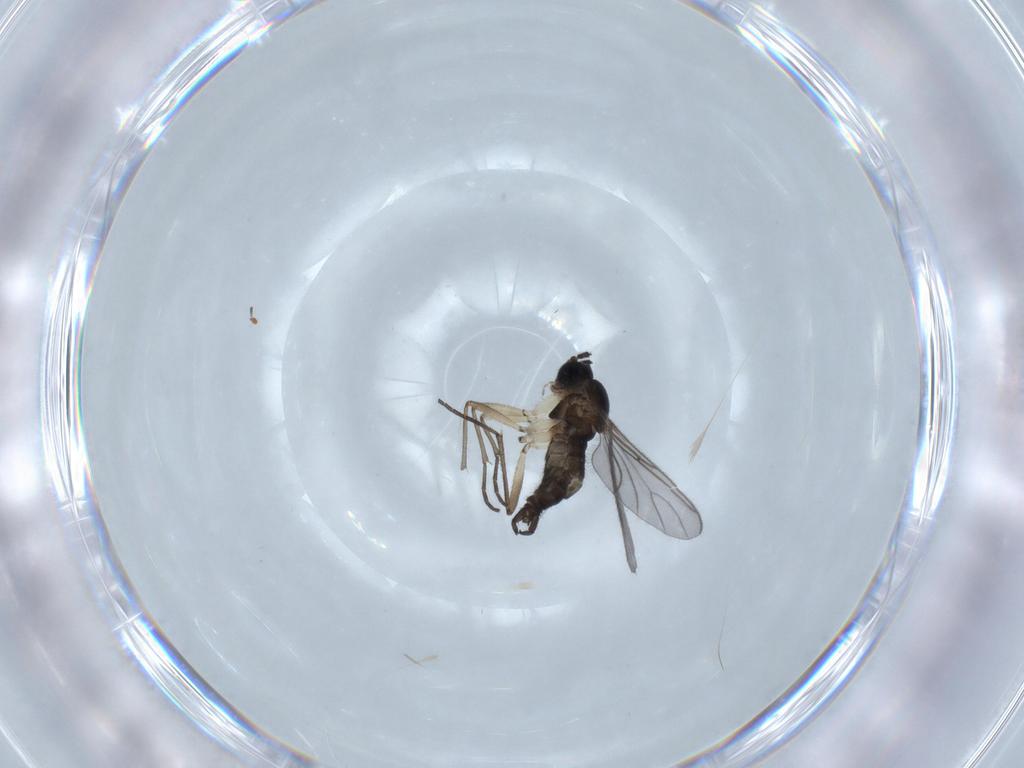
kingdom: Animalia
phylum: Arthropoda
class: Insecta
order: Diptera
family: Sciaridae
